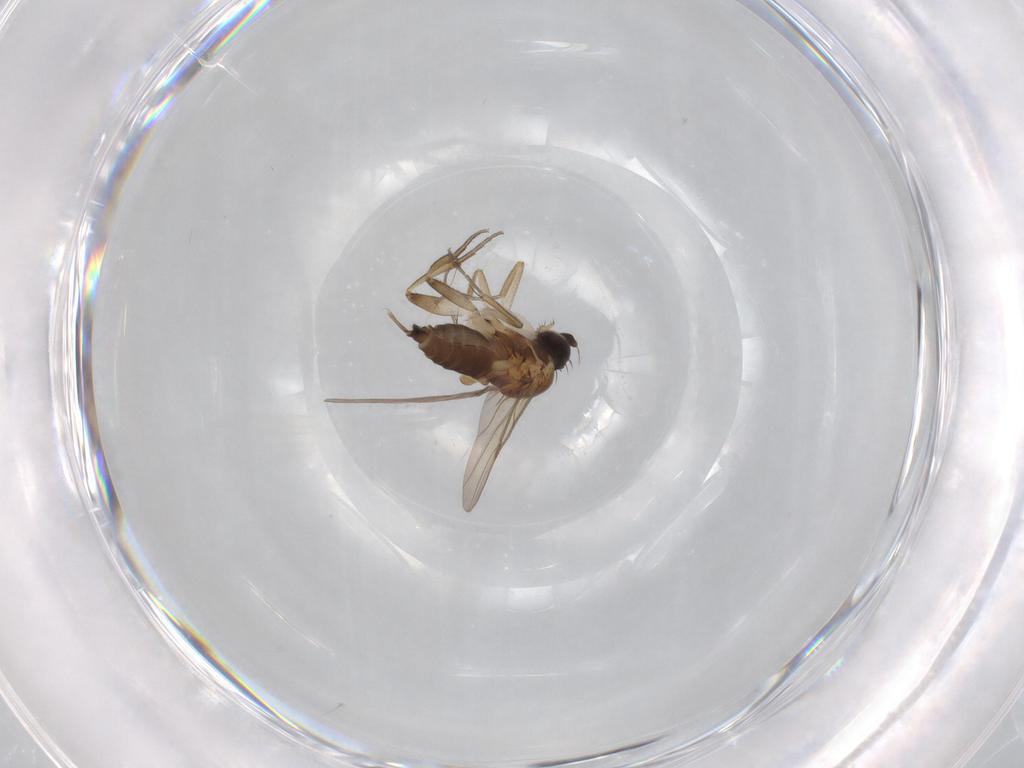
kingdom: Animalia
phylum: Arthropoda
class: Insecta
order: Diptera
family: Phoridae
